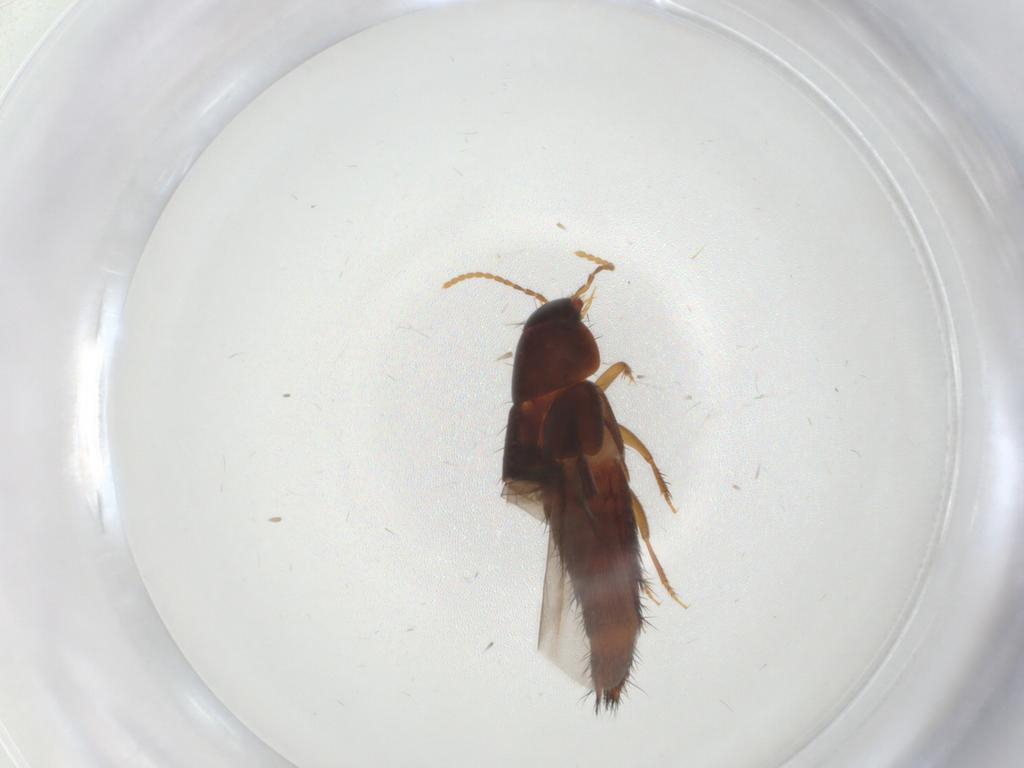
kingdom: Animalia
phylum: Arthropoda
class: Insecta
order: Coleoptera
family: Staphylinidae
